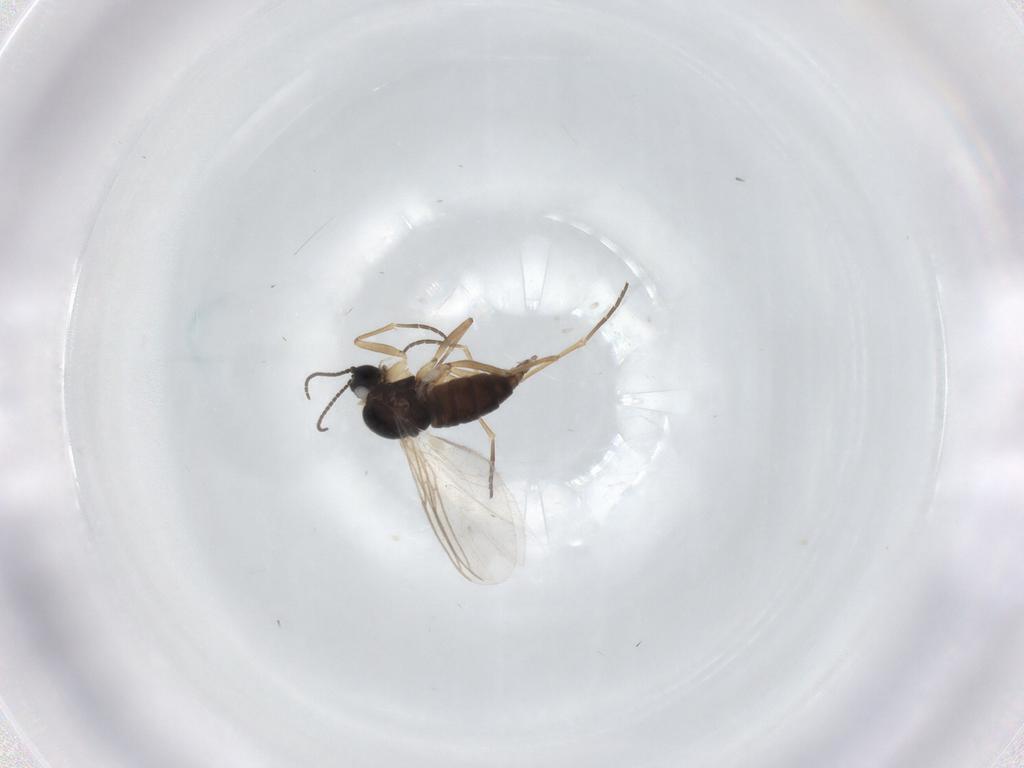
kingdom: Animalia
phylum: Arthropoda
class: Insecta
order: Diptera
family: Sciaridae
